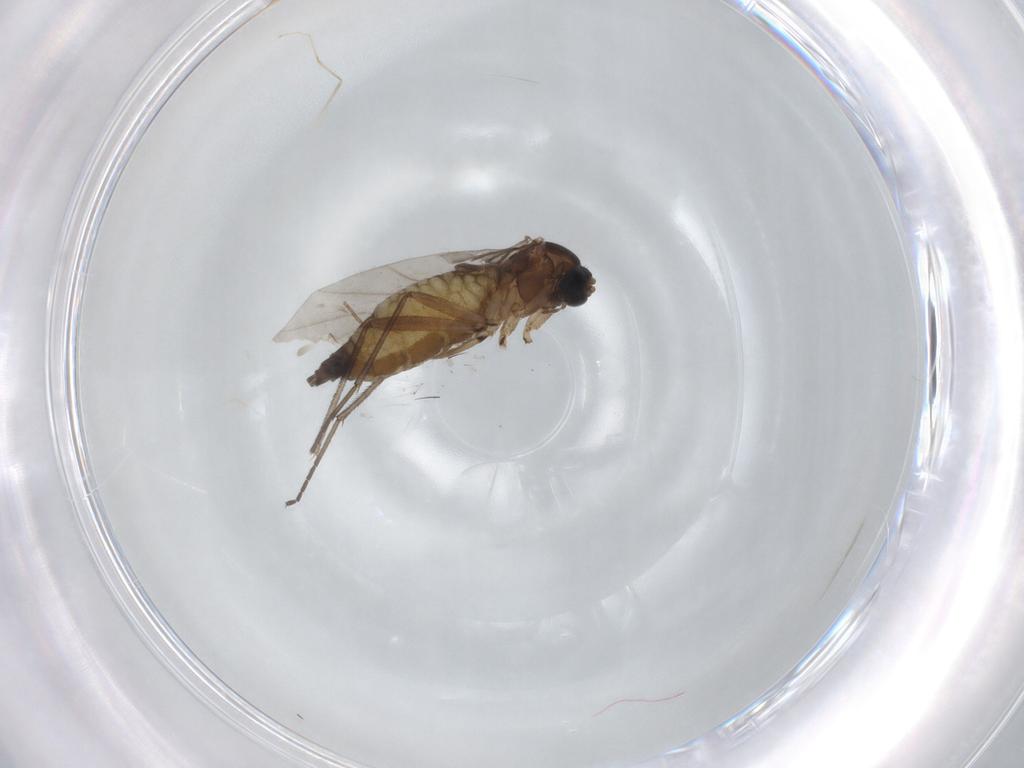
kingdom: Animalia
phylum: Arthropoda
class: Insecta
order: Diptera
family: Sciaridae
